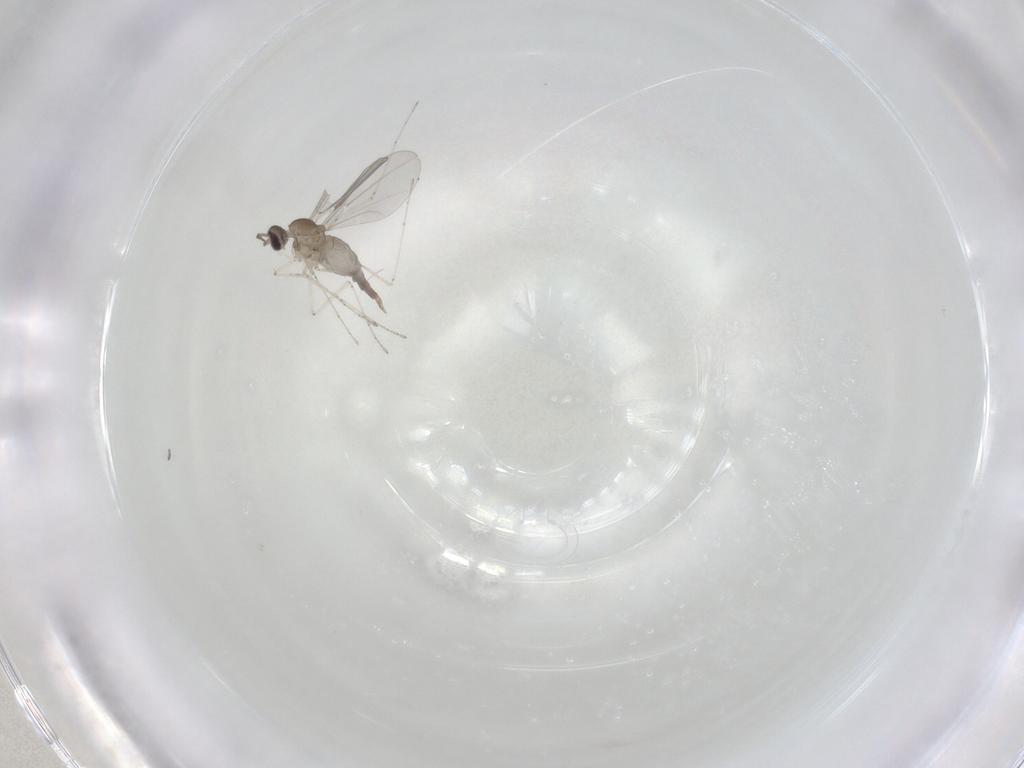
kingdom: Animalia
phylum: Arthropoda
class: Insecta
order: Diptera
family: Cecidomyiidae
